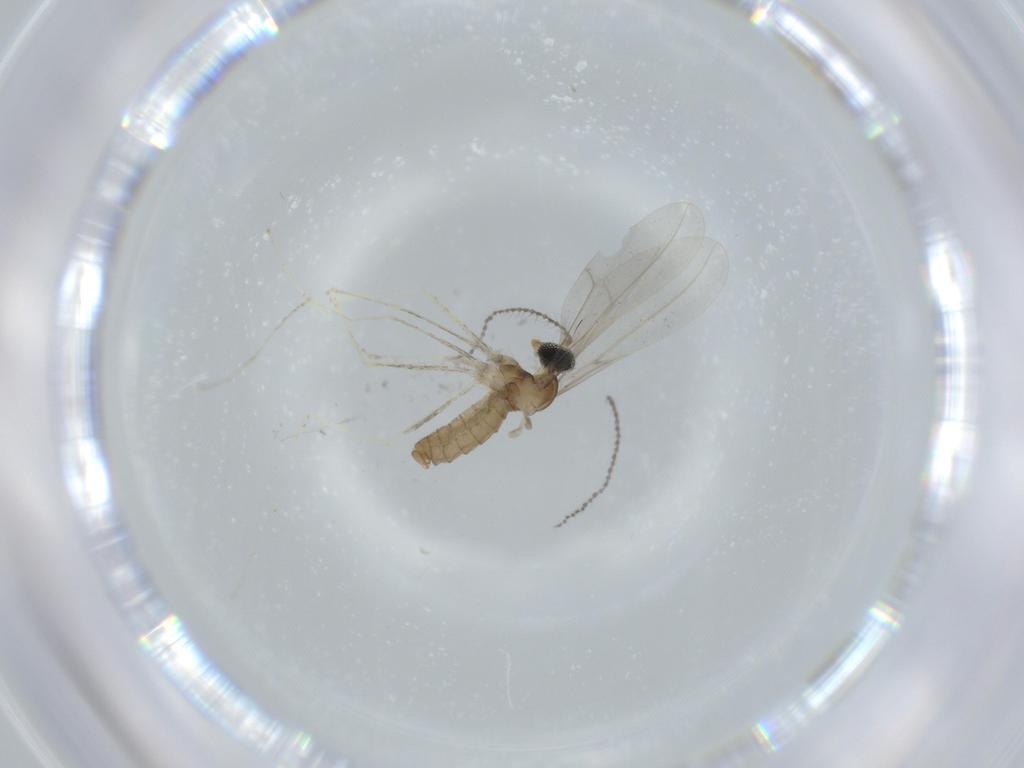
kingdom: Animalia
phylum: Arthropoda
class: Insecta
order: Diptera
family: Cecidomyiidae
